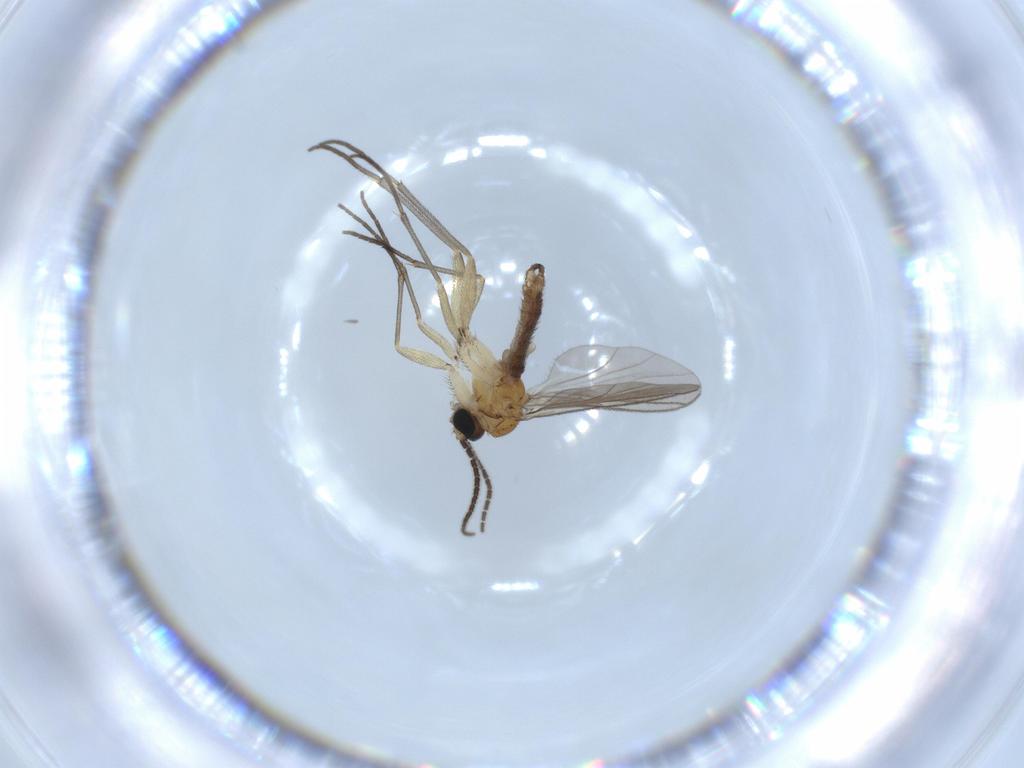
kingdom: Animalia
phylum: Arthropoda
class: Insecta
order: Diptera
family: Sciaridae
